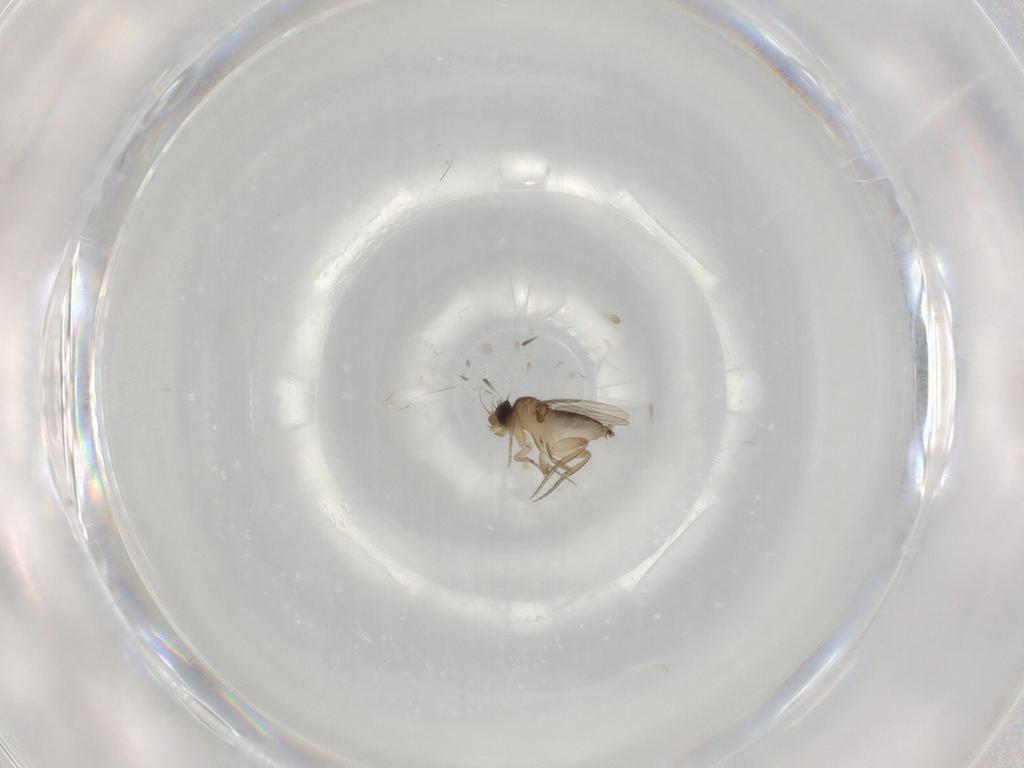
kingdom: Animalia
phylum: Arthropoda
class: Insecta
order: Diptera
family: Phoridae
